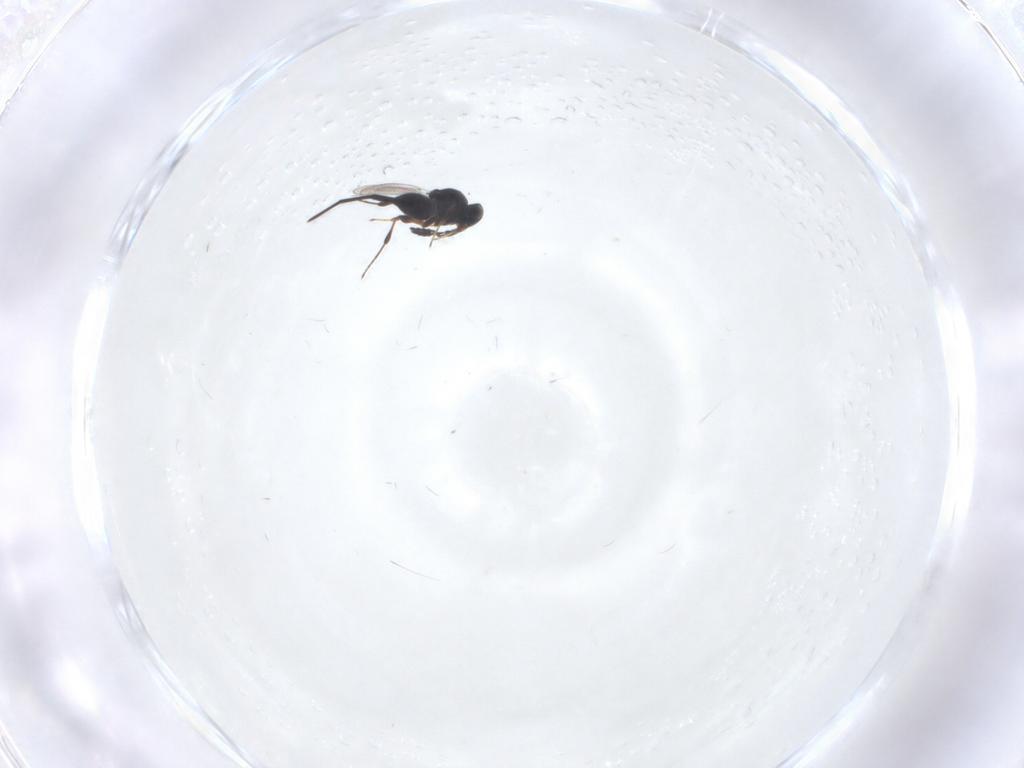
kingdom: Animalia
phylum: Arthropoda
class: Insecta
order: Hymenoptera
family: Platygastridae
